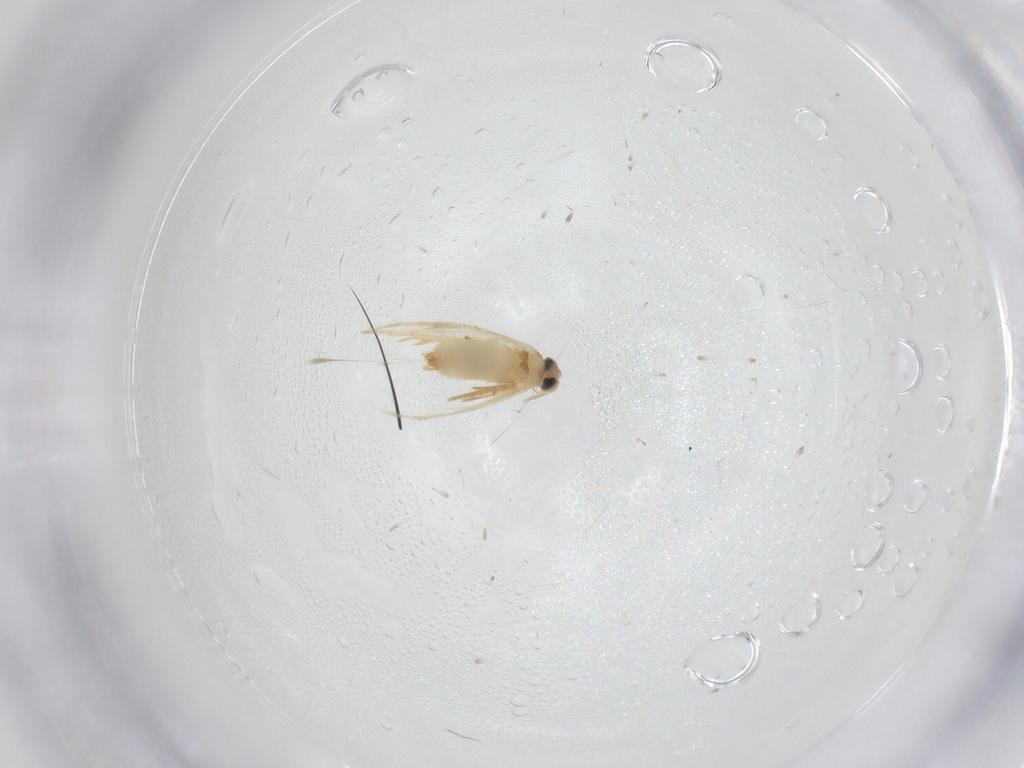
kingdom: Animalia
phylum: Arthropoda
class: Insecta
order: Lepidoptera
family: Crambidae
